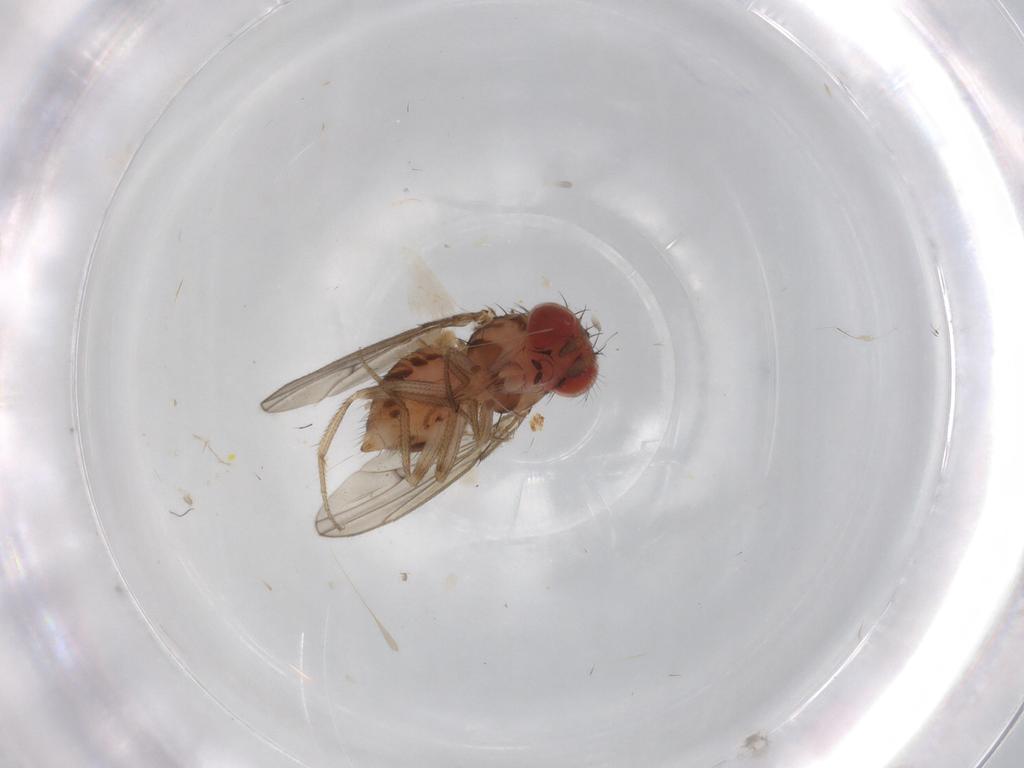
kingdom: Animalia
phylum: Arthropoda
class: Insecta
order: Diptera
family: Drosophilidae
